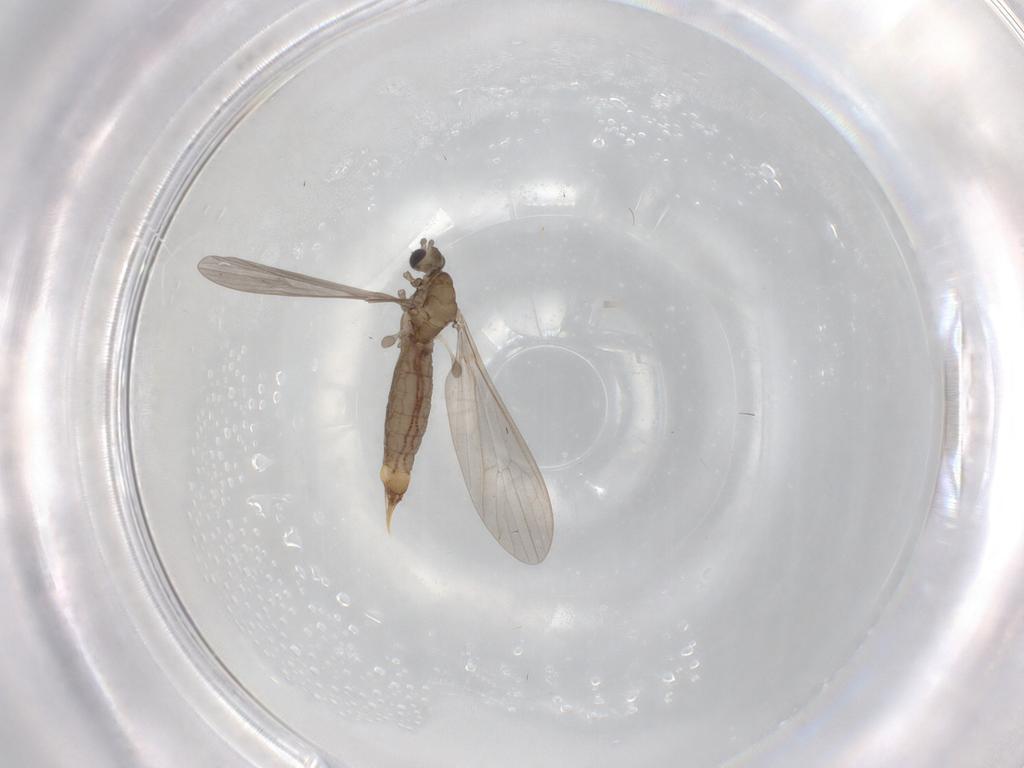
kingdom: Animalia
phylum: Arthropoda
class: Insecta
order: Diptera
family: Limoniidae
